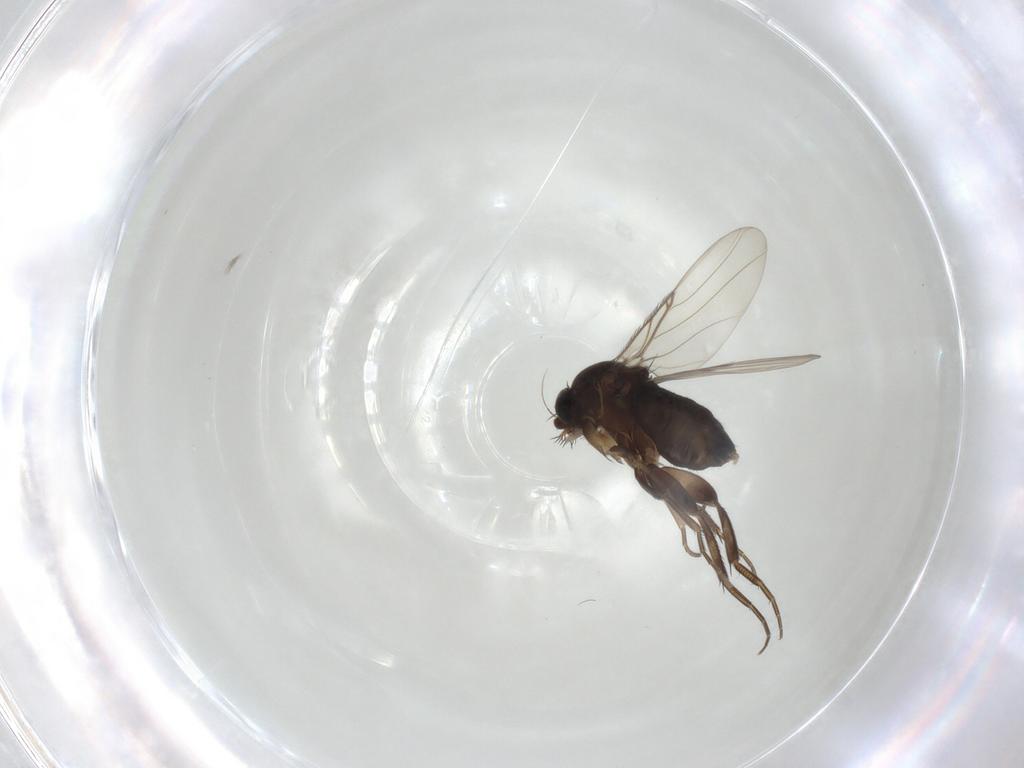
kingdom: Animalia
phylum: Arthropoda
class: Insecta
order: Diptera
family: Phoridae
